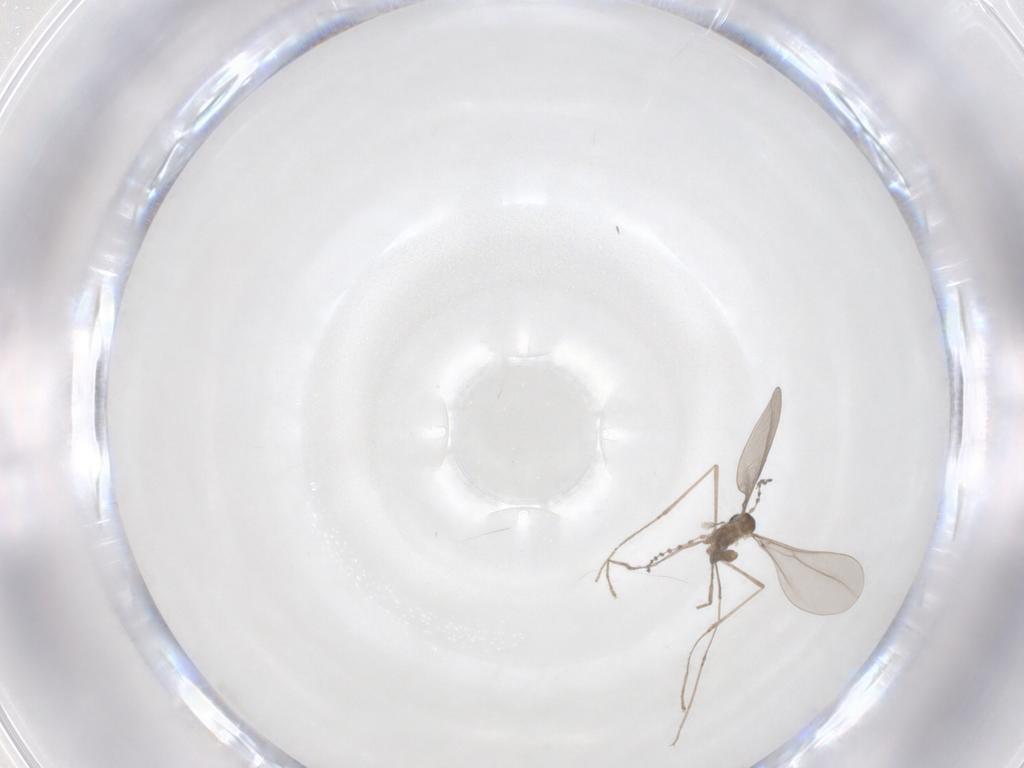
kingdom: Animalia
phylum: Arthropoda
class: Insecta
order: Diptera
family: Cecidomyiidae
